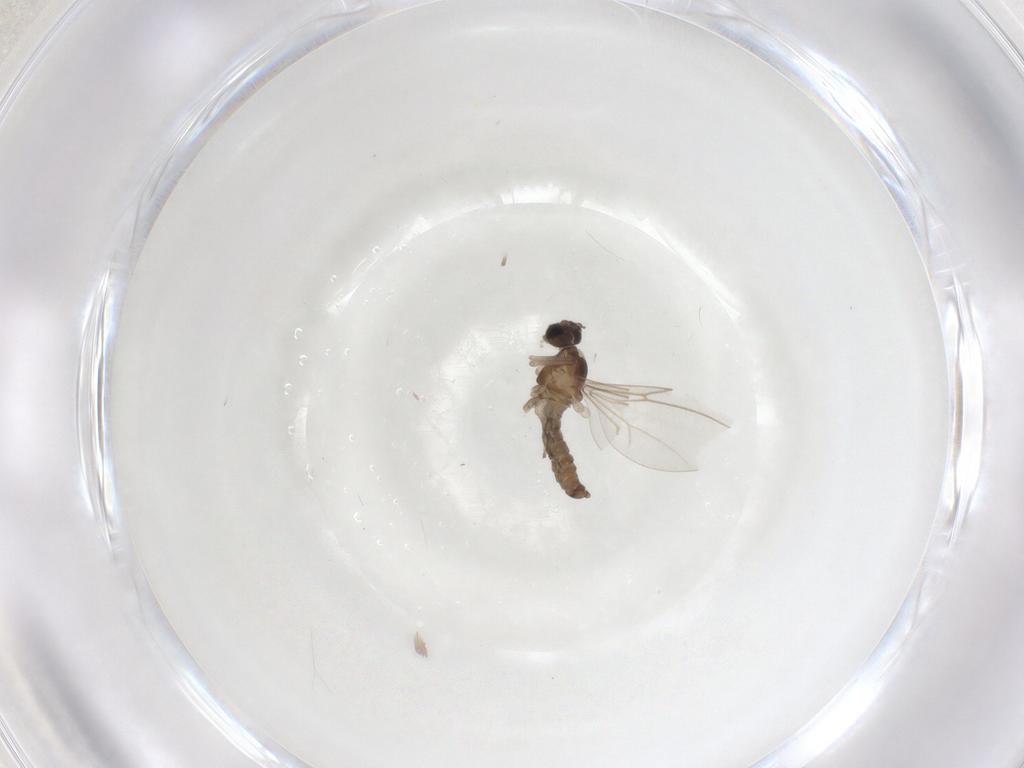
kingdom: Animalia
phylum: Arthropoda
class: Insecta
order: Diptera
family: Cecidomyiidae
